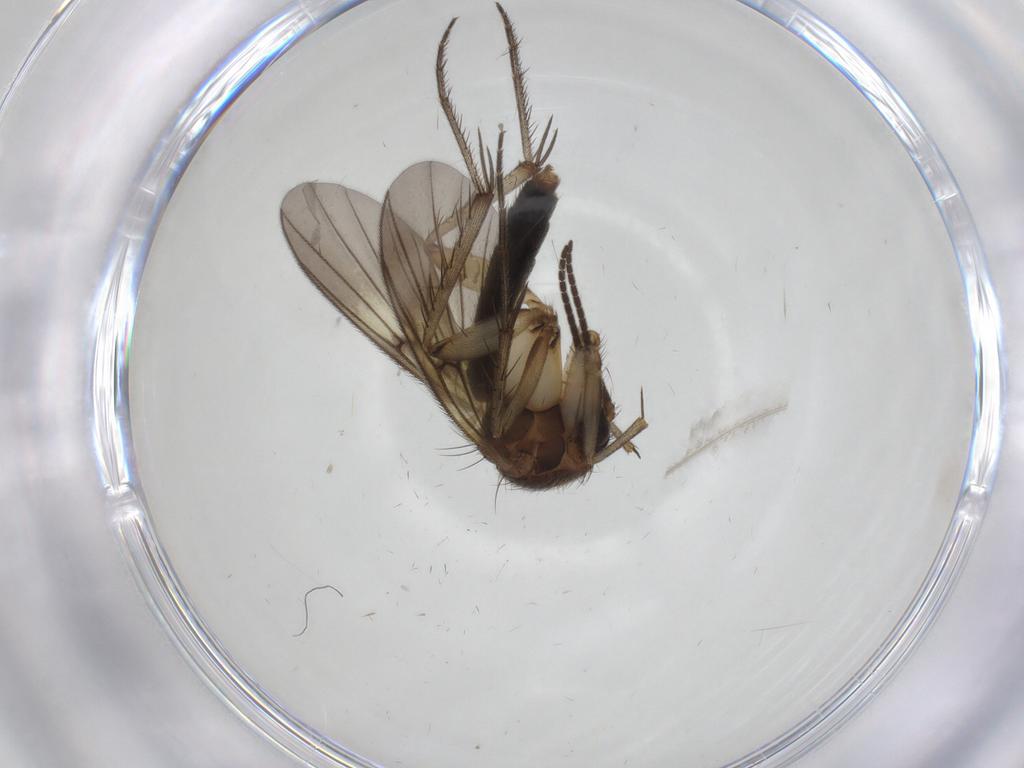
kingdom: Animalia
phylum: Arthropoda
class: Insecta
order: Diptera
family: Mycetophilidae
